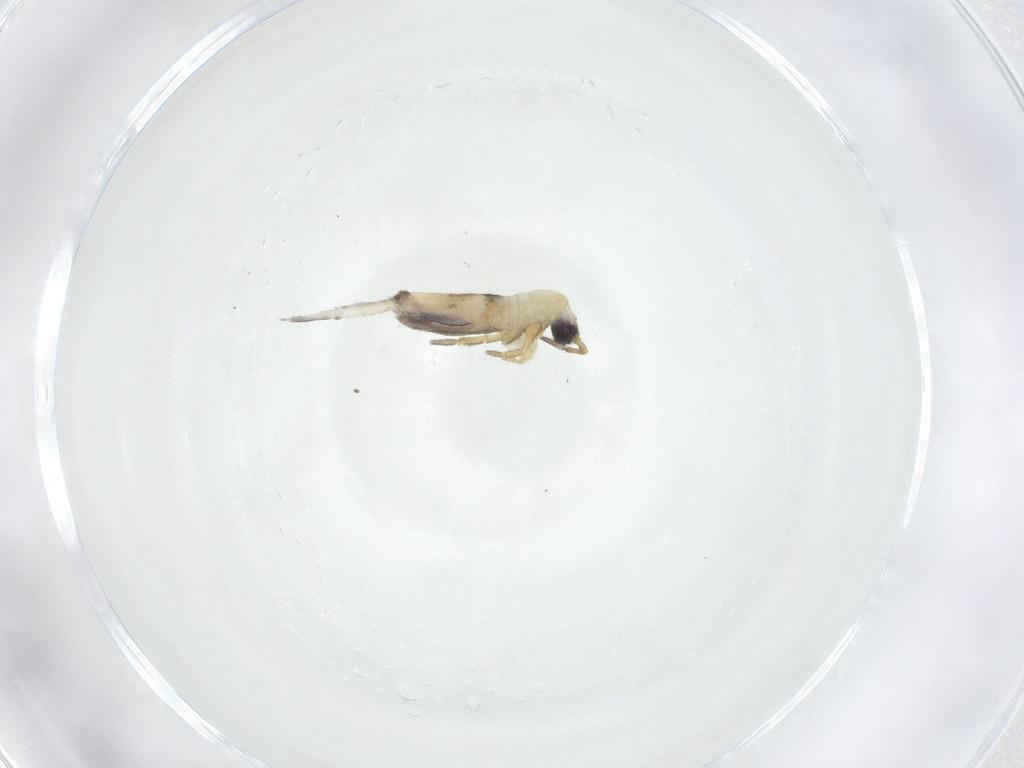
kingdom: Animalia
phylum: Arthropoda
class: Collembola
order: Entomobryomorpha
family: Entomobryidae
